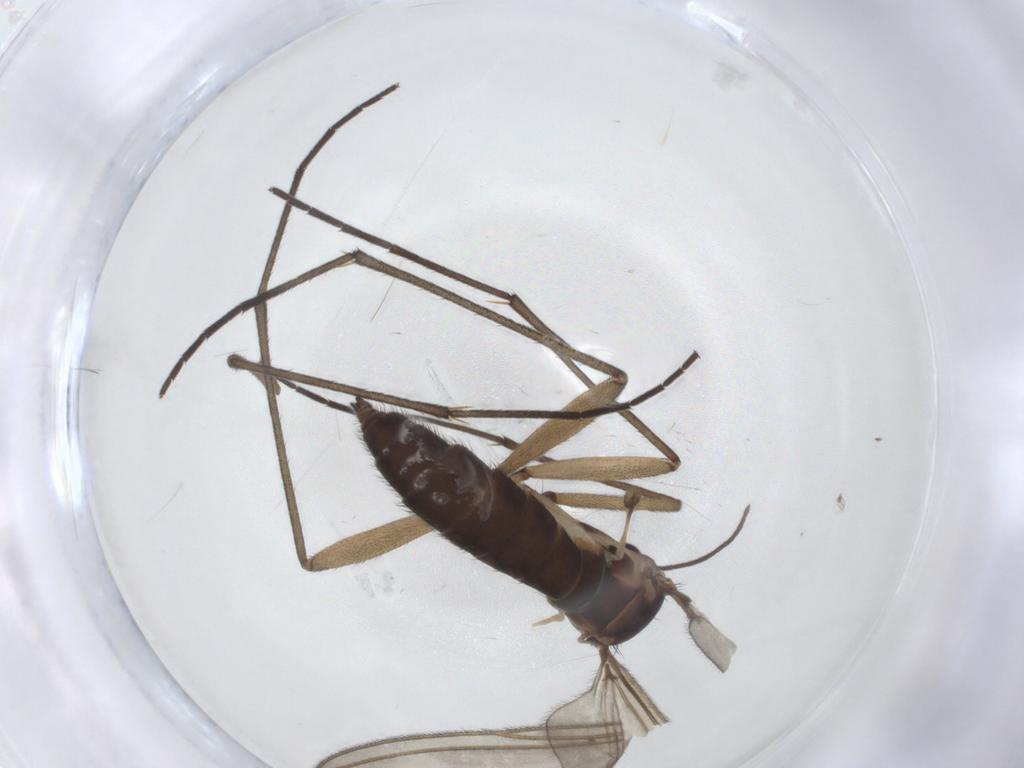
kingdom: Animalia
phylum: Arthropoda
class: Insecta
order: Diptera
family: Sciaridae
